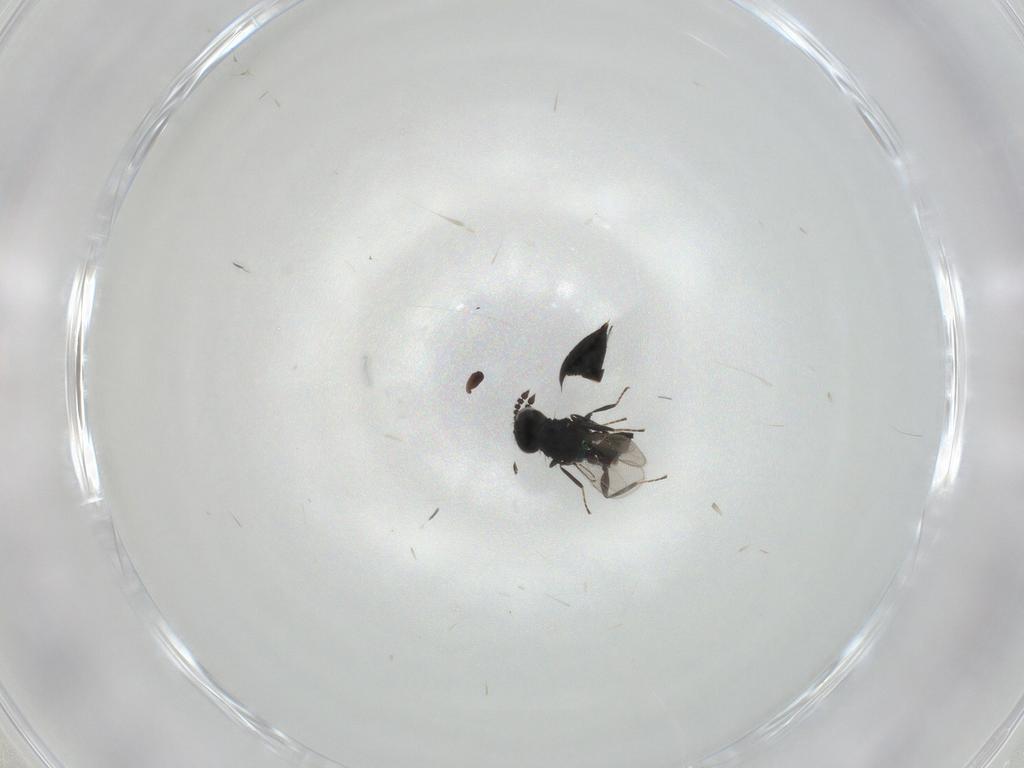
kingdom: Animalia
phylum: Arthropoda
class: Insecta
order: Hymenoptera
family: Eulophidae
